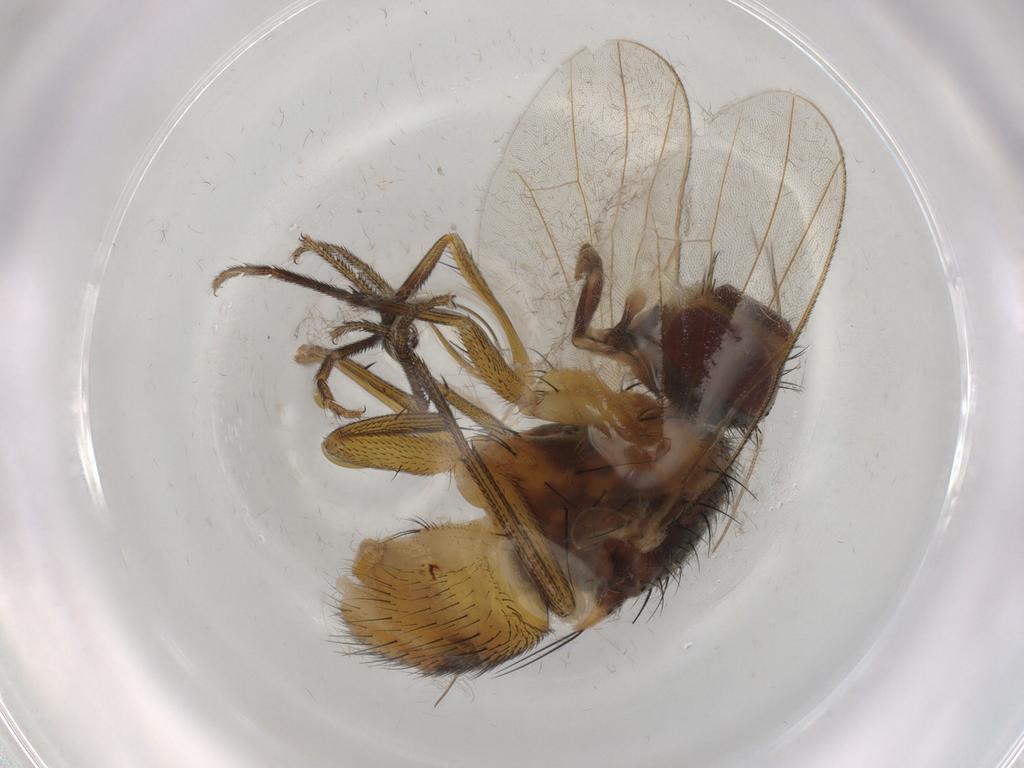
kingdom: Animalia
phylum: Arthropoda
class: Insecta
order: Diptera
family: Muscidae
